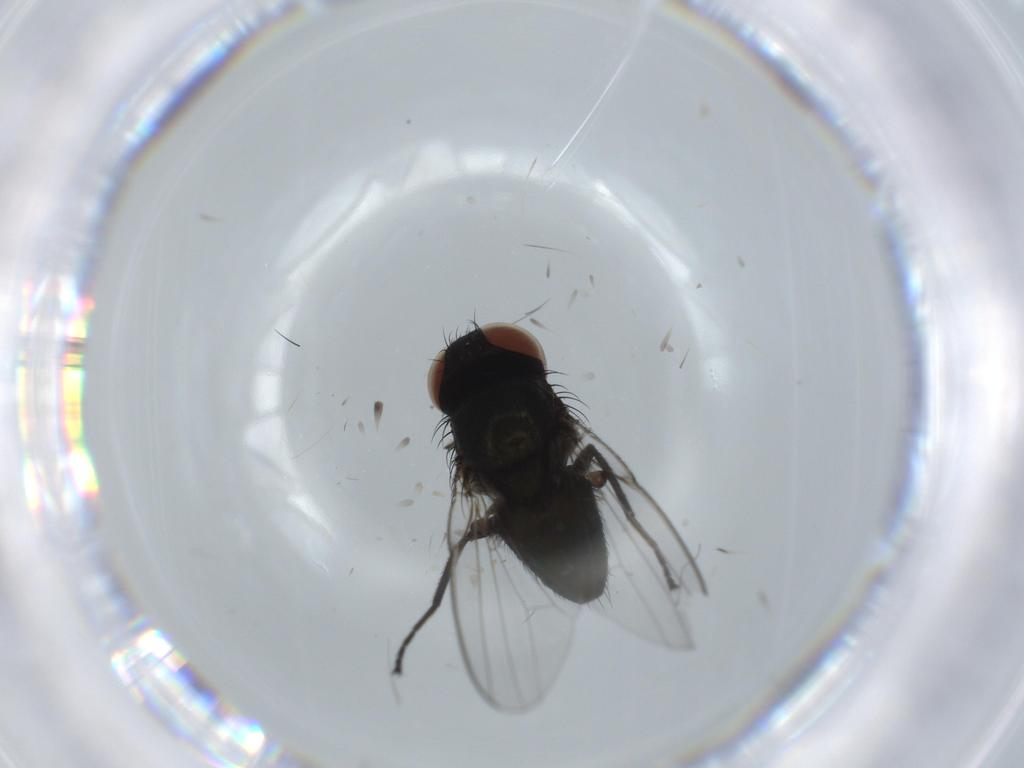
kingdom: Animalia
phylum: Arthropoda
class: Insecta
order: Diptera
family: Milichiidae
